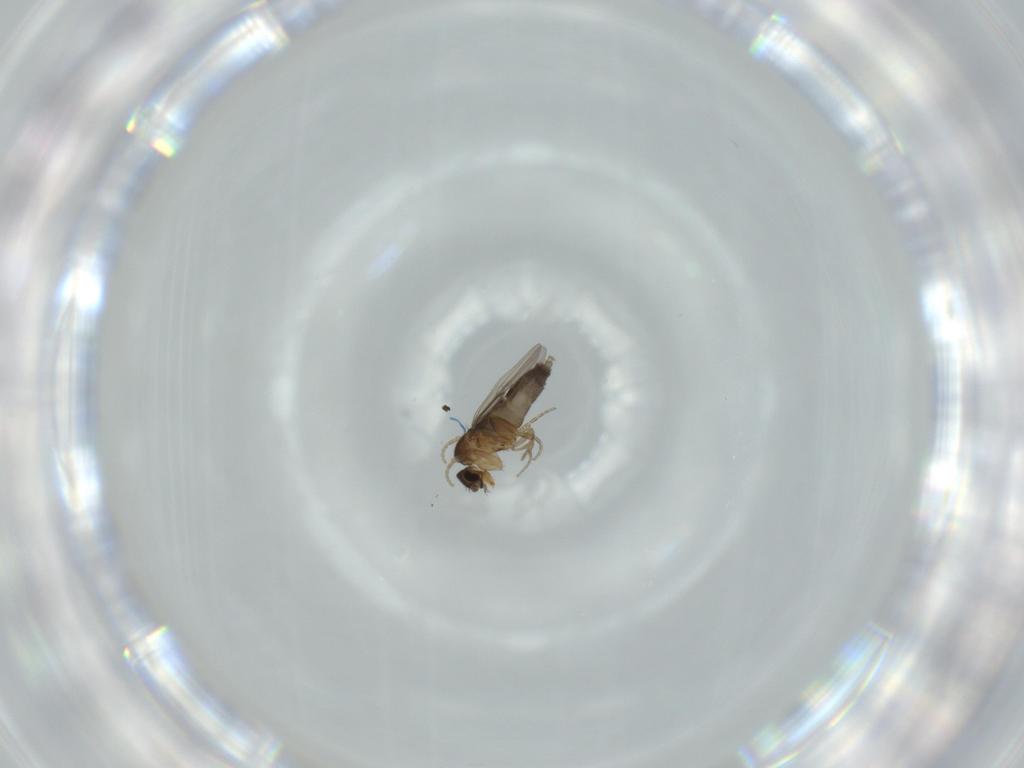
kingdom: Animalia
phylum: Arthropoda
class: Insecta
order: Diptera
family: Phoridae
